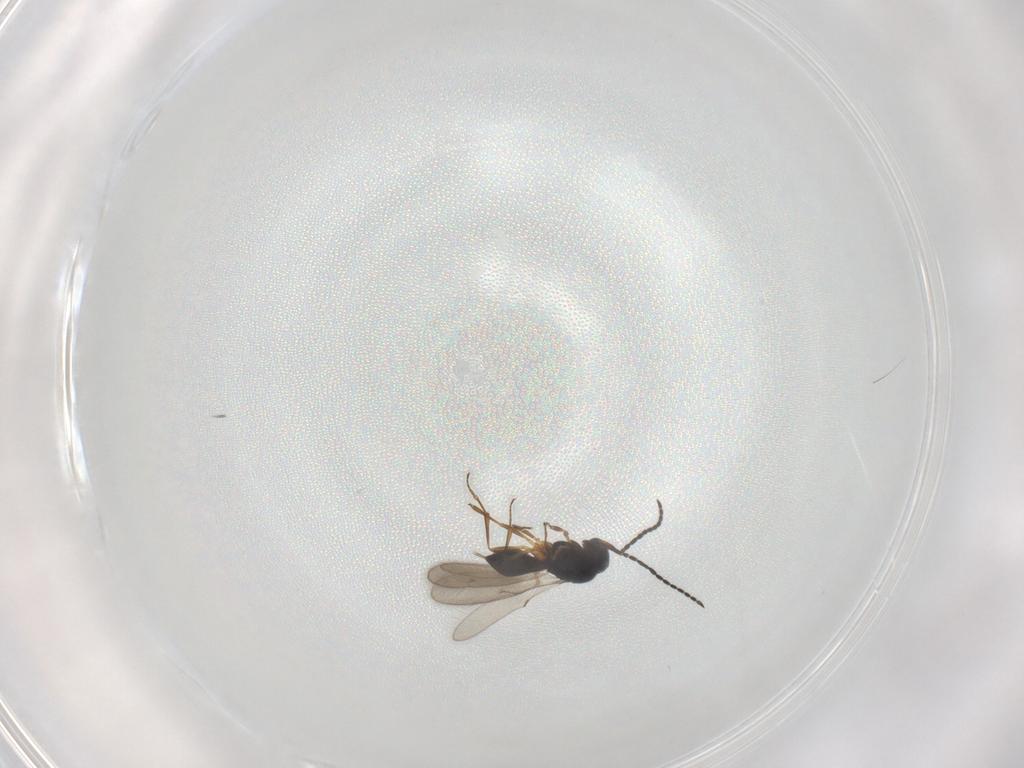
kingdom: Animalia
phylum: Arthropoda
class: Insecta
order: Hymenoptera
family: Scelionidae
